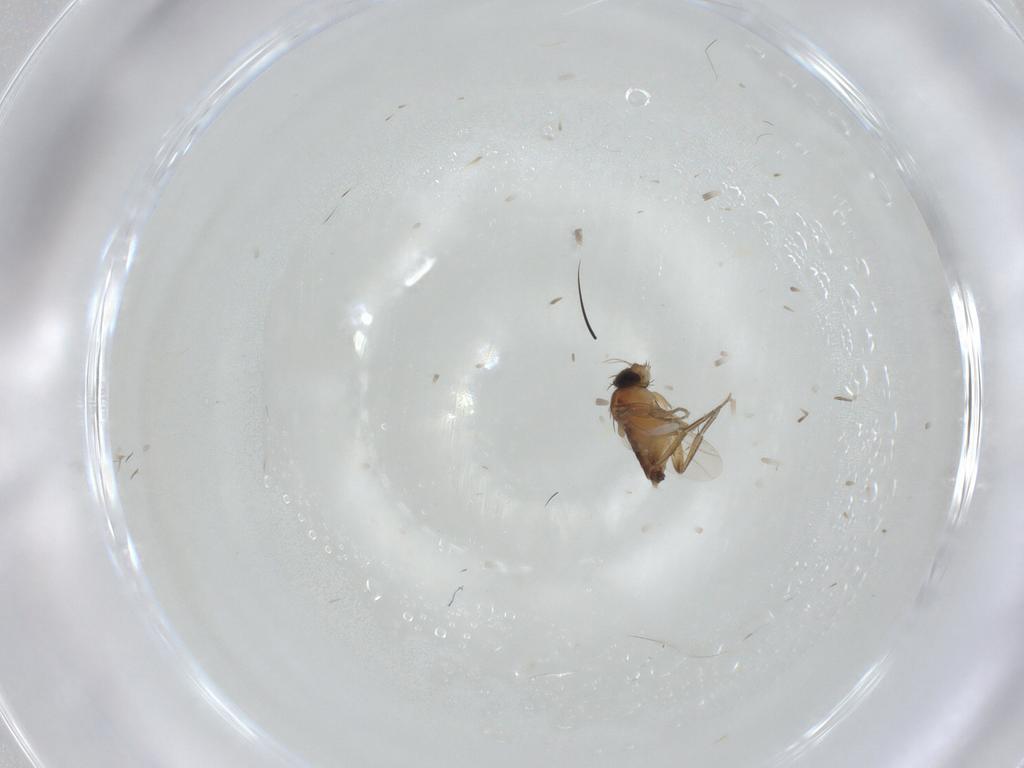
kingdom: Animalia
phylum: Arthropoda
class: Insecta
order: Diptera
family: Phoridae
